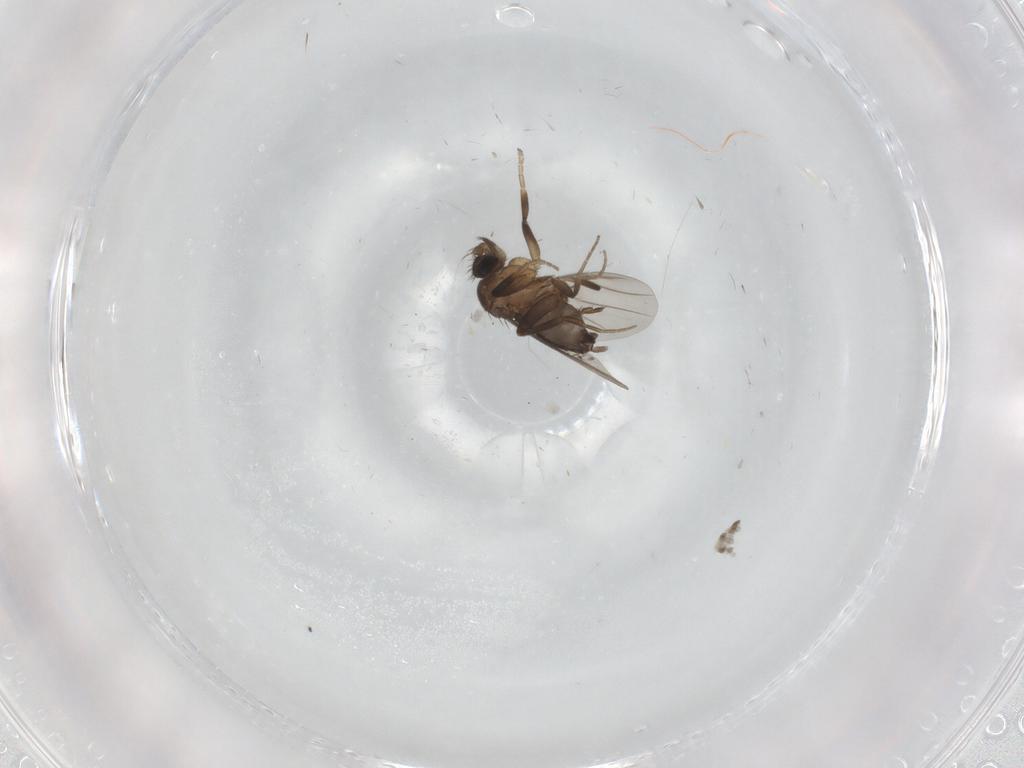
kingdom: Animalia
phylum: Arthropoda
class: Insecta
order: Diptera
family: Phoridae
